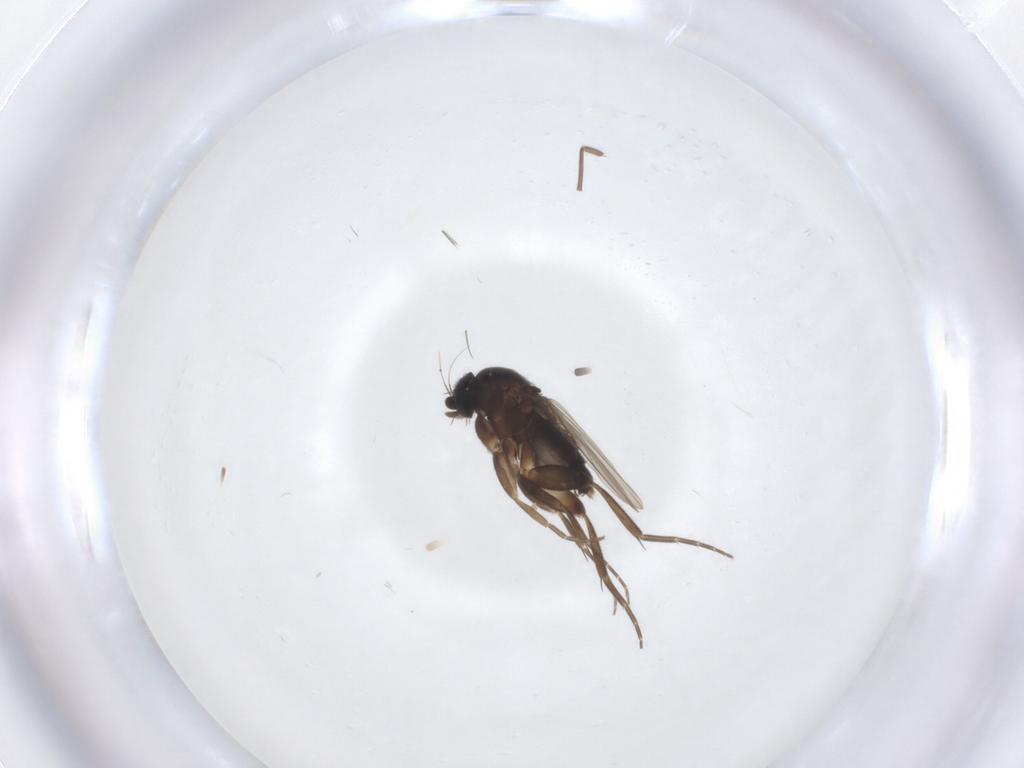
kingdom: Animalia
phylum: Arthropoda
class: Insecta
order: Diptera
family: Phoridae
